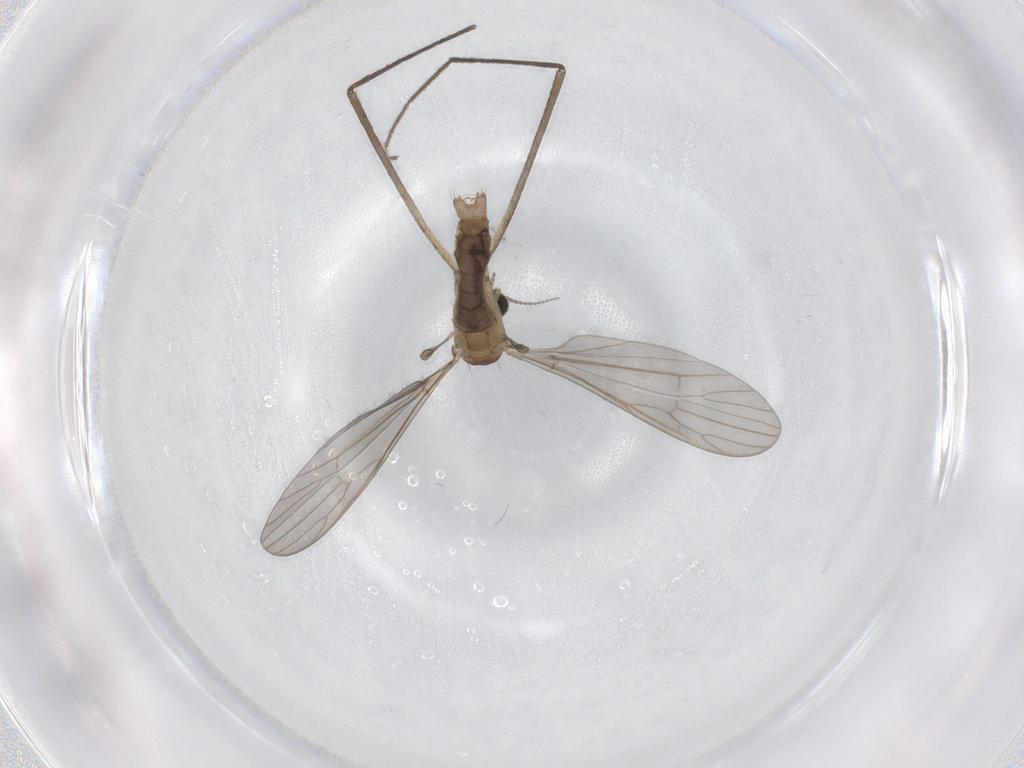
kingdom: Animalia
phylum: Arthropoda
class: Insecta
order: Diptera
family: Cecidomyiidae
